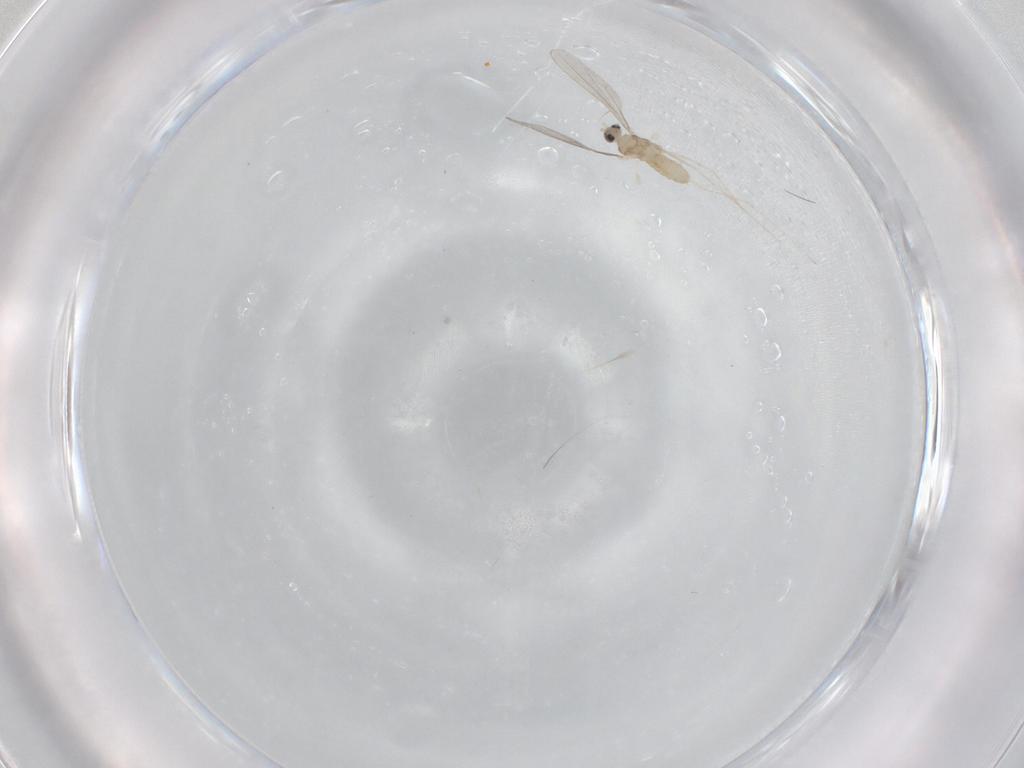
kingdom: Animalia
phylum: Arthropoda
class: Insecta
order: Diptera
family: Cecidomyiidae
